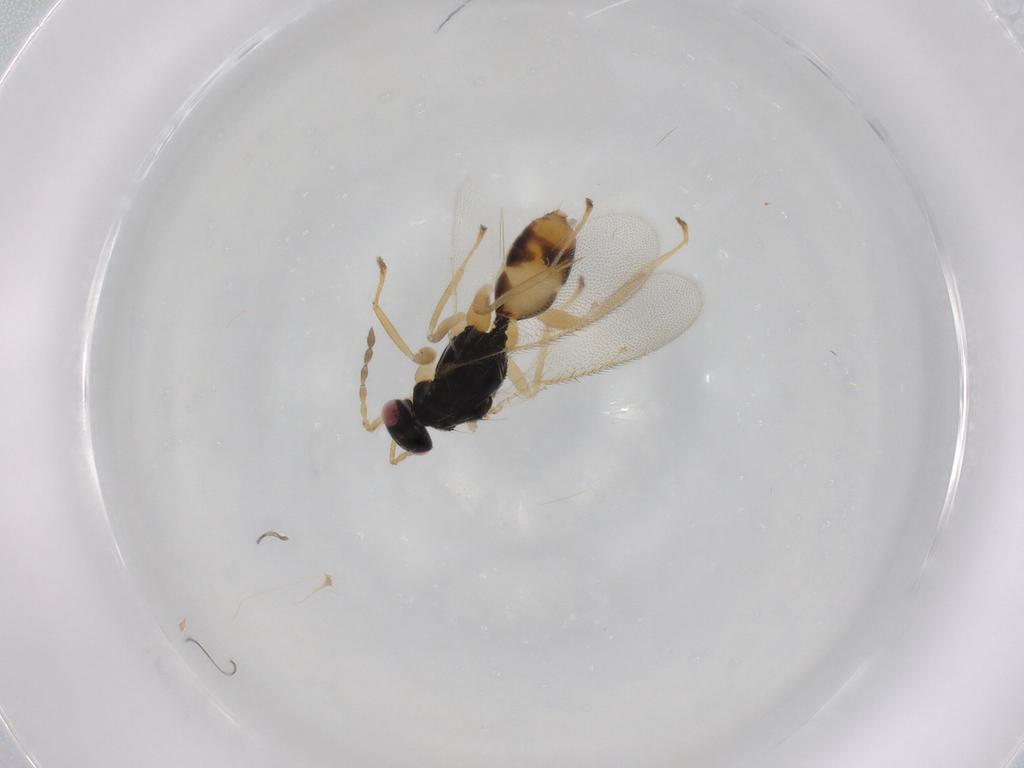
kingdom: Animalia
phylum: Arthropoda
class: Insecta
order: Hymenoptera
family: Eulophidae
